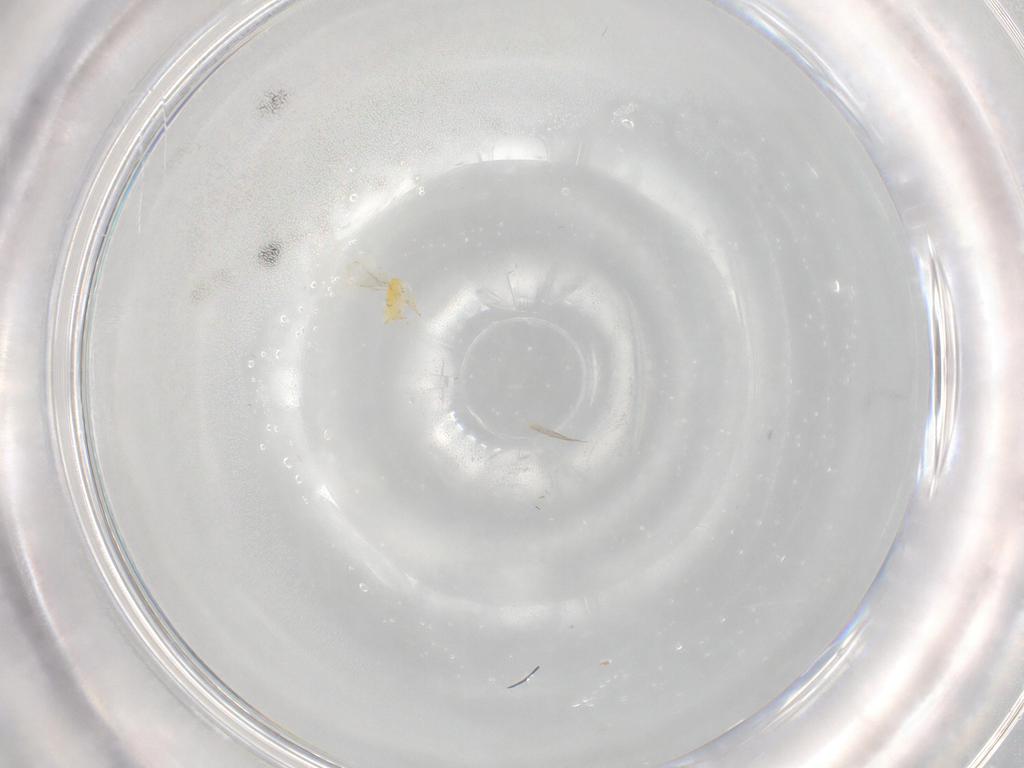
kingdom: Animalia
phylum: Arthropoda
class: Insecta
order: Hymenoptera
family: Aphelinidae
